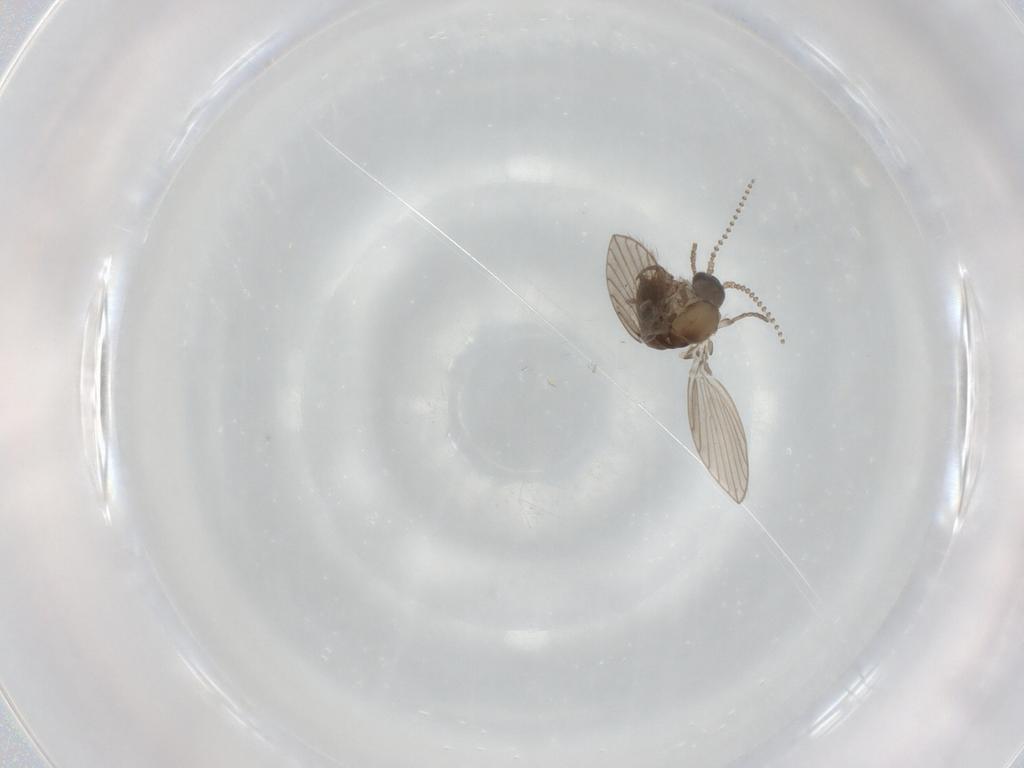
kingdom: Animalia
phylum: Arthropoda
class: Insecta
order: Diptera
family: Psychodidae
